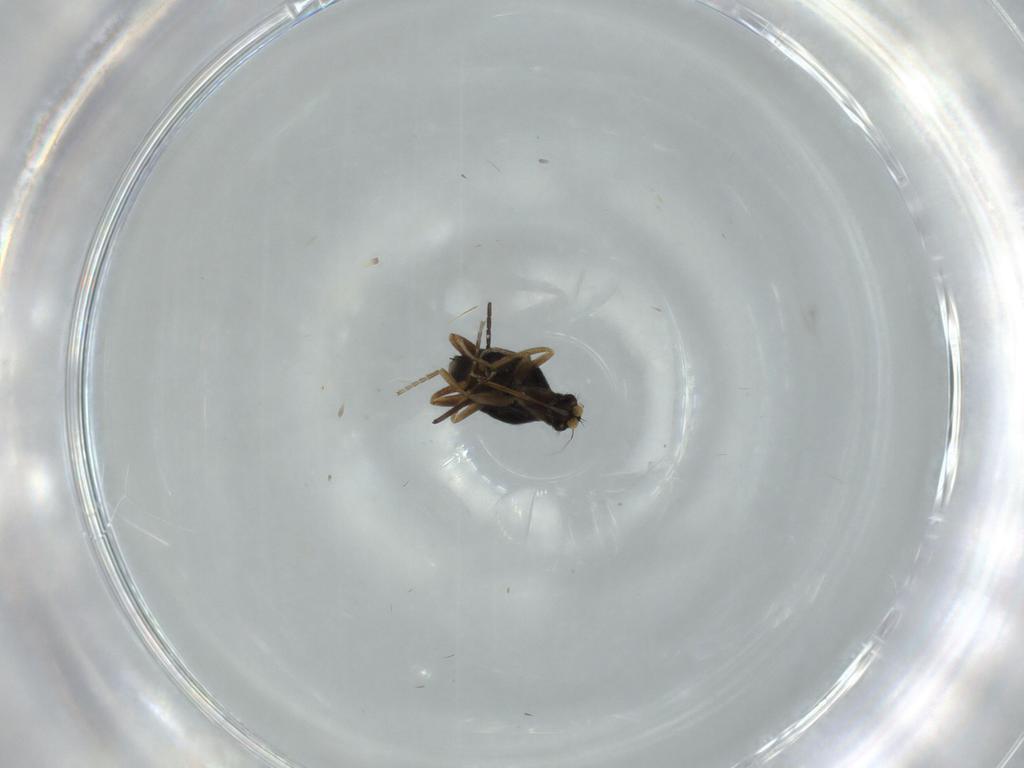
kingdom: Animalia
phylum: Arthropoda
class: Insecta
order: Diptera
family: Cecidomyiidae
